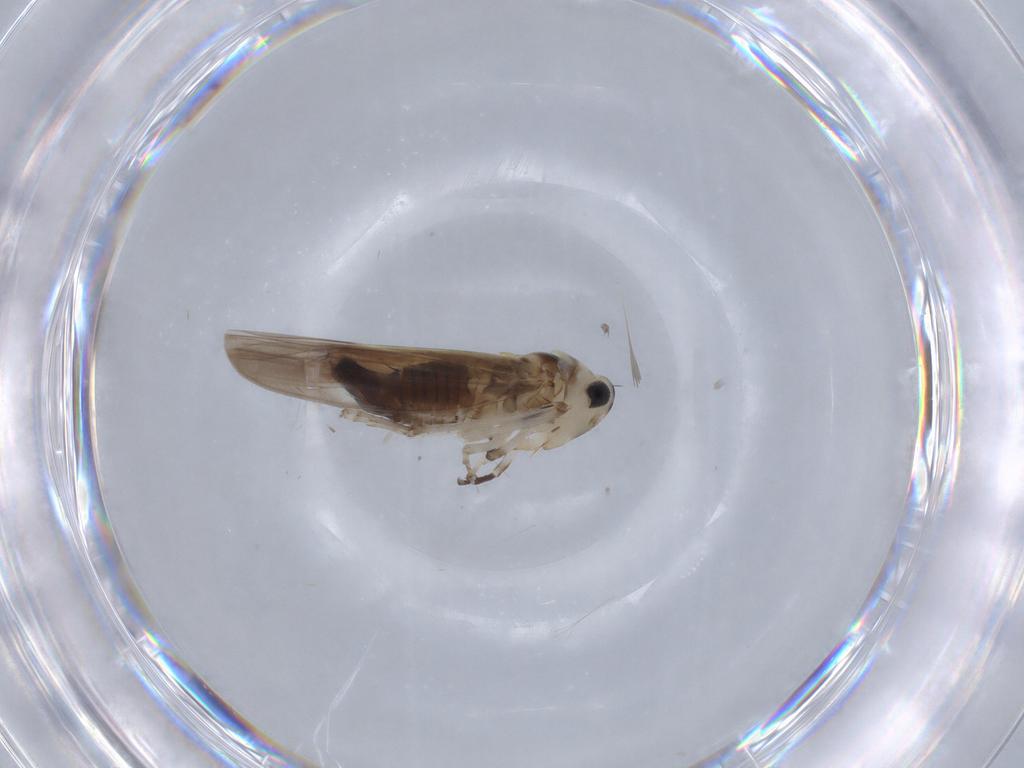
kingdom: Animalia
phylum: Arthropoda
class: Insecta
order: Hemiptera
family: Cicadellidae
